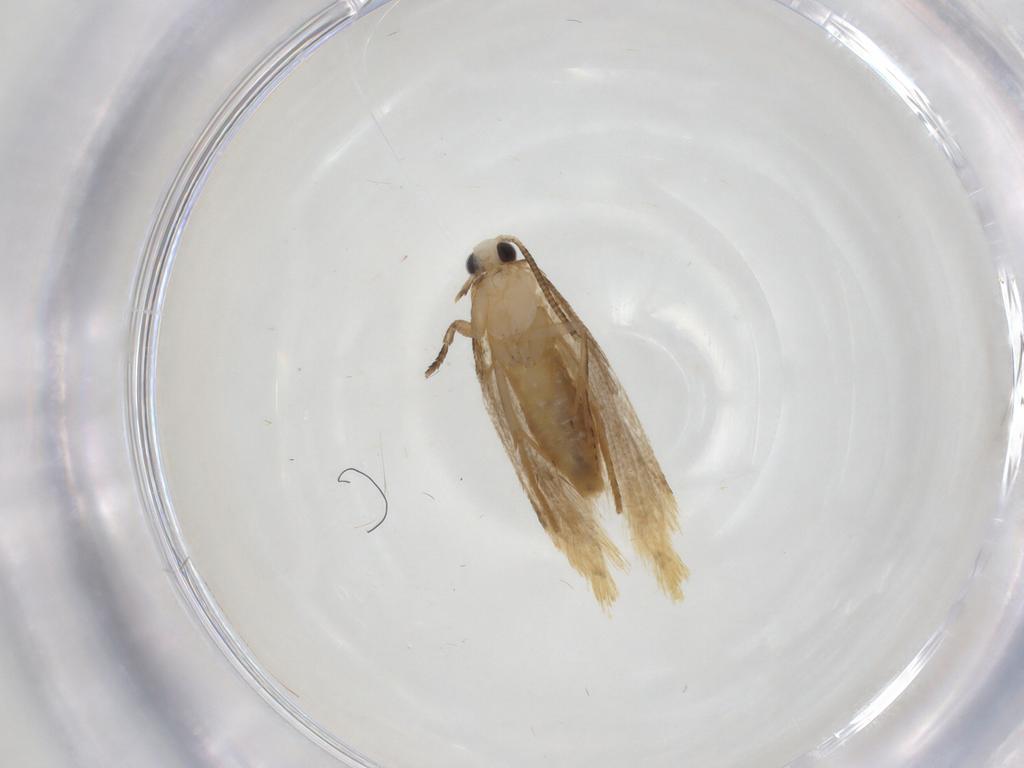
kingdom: Animalia
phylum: Arthropoda
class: Insecta
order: Lepidoptera
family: Tineidae
